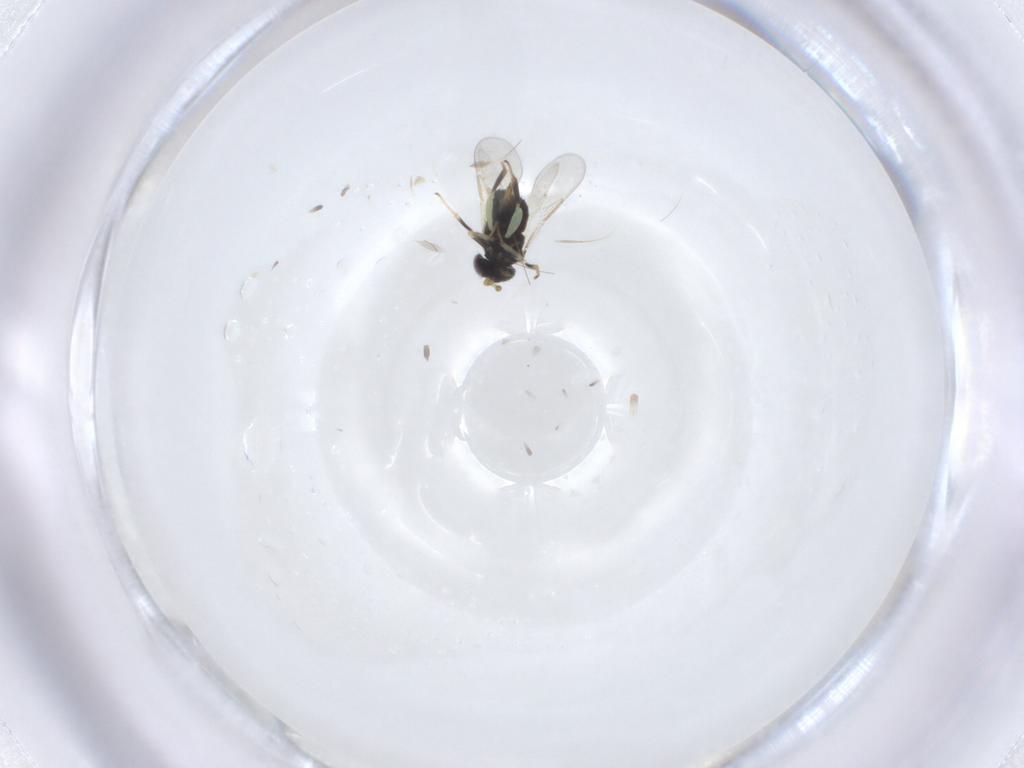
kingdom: Animalia
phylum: Arthropoda
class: Insecta
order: Hymenoptera
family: Aphelinidae
